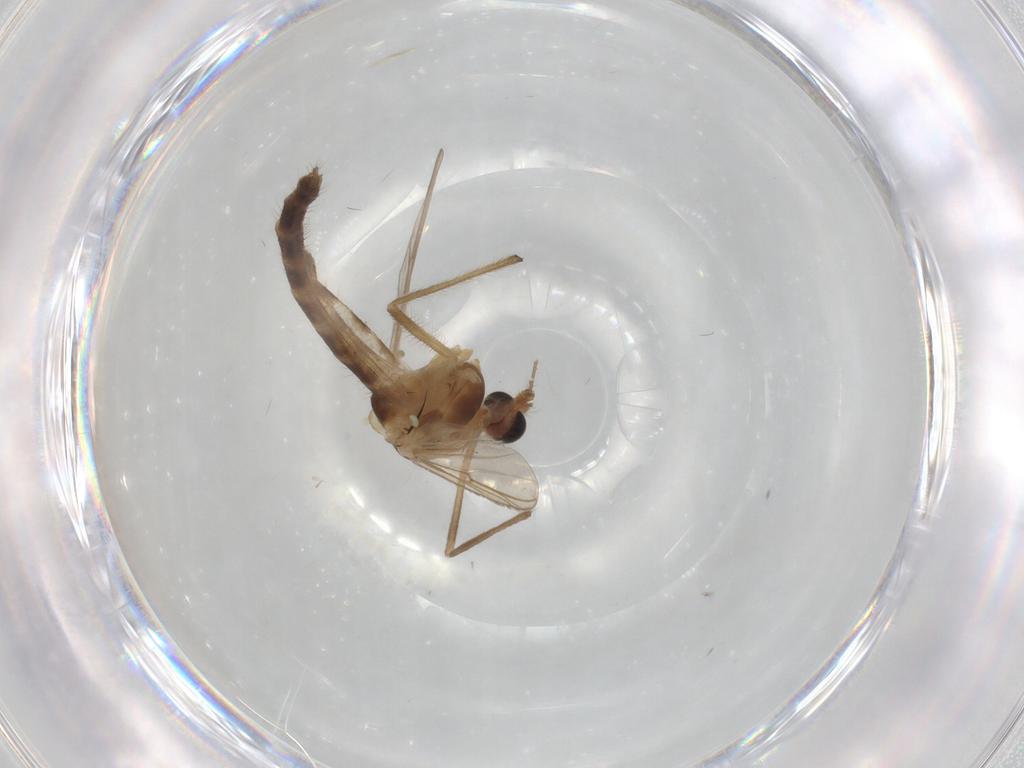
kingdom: Animalia
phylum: Arthropoda
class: Insecta
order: Diptera
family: Chironomidae
